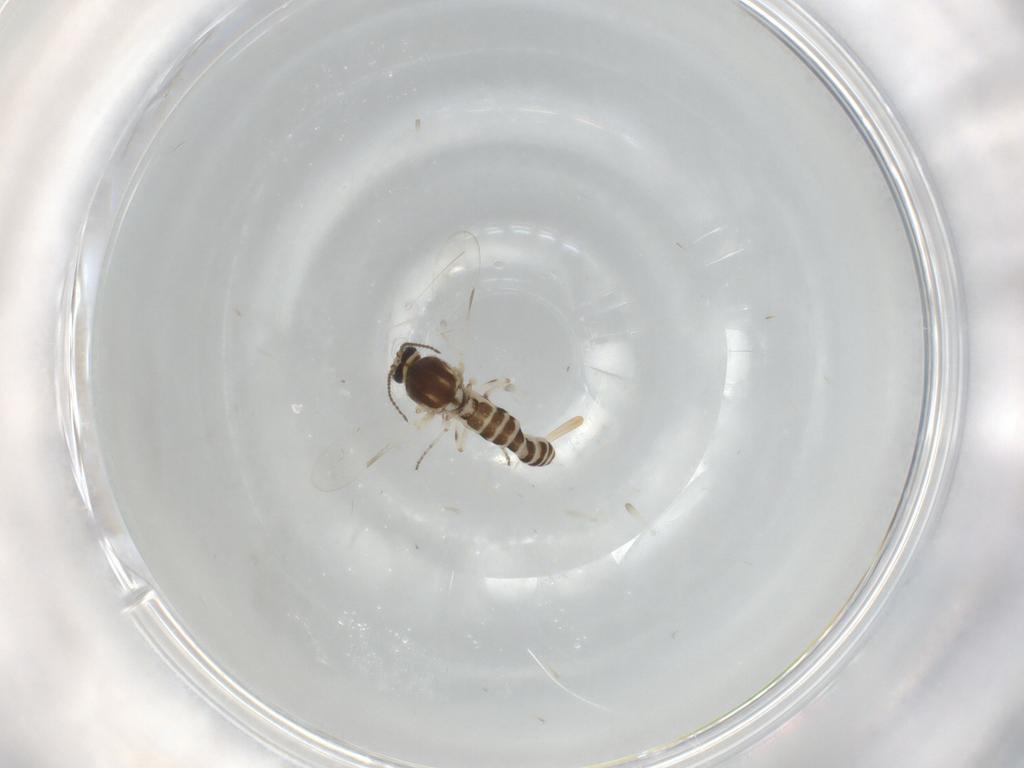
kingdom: Animalia
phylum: Arthropoda
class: Insecta
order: Diptera
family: Ceratopogonidae
